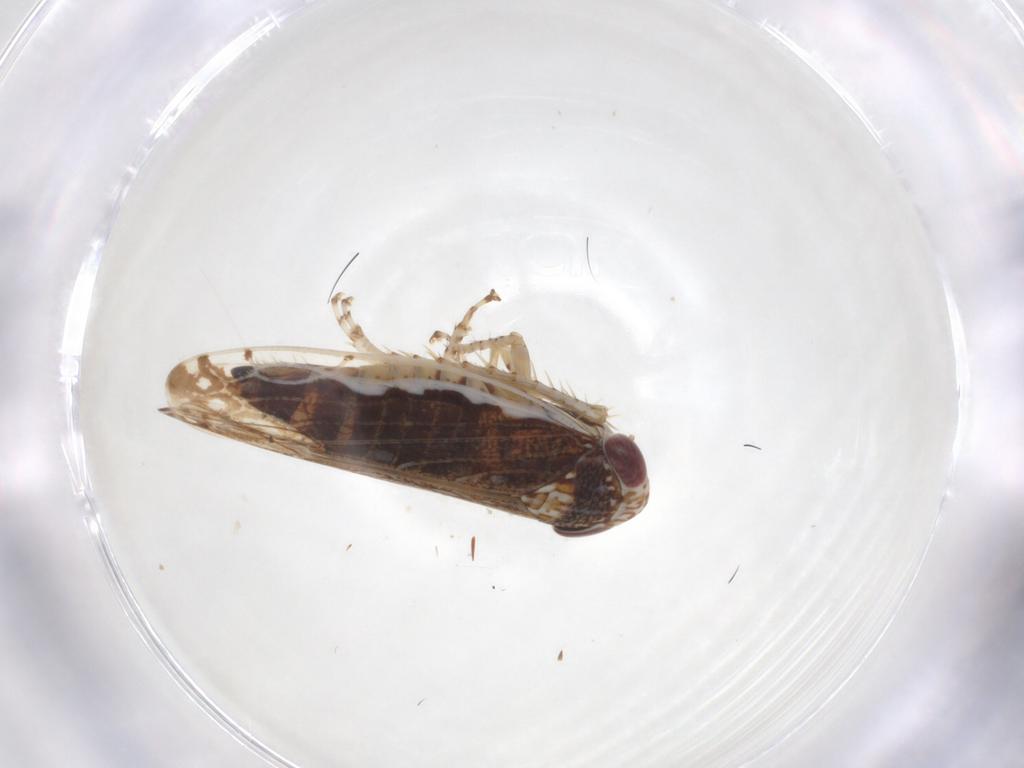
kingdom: Animalia
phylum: Arthropoda
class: Insecta
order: Hemiptera
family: Cicadellidae
